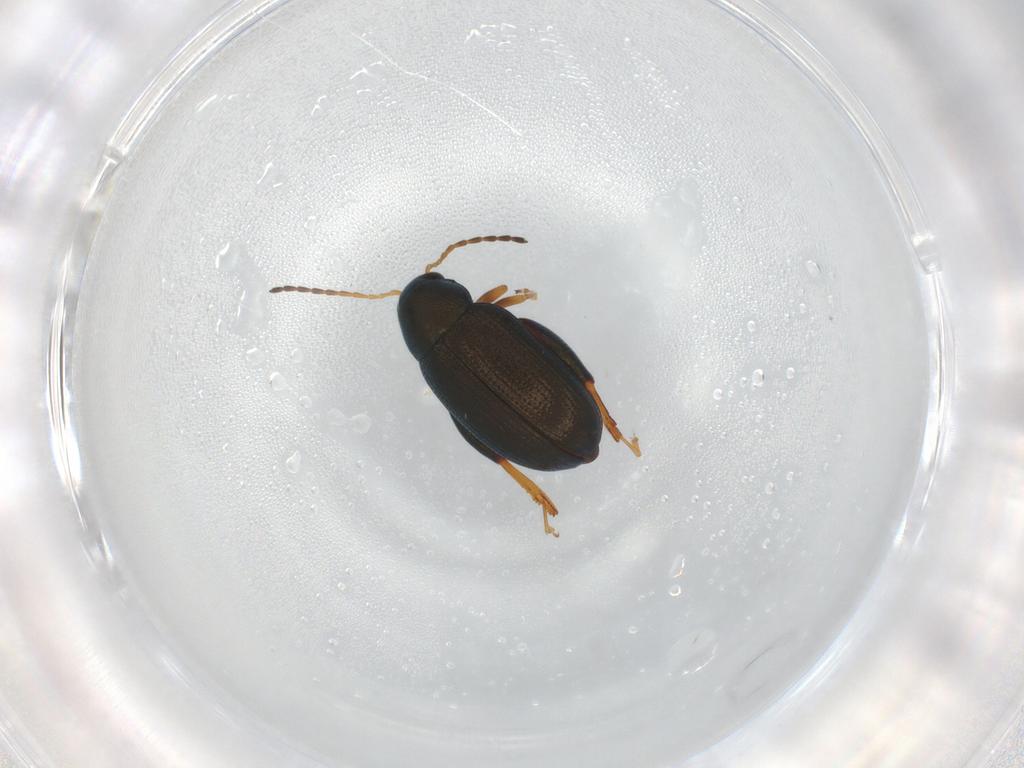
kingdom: Animalia
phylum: Arthropoda
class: Insecta
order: Coleoptera
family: Chrysomelidae
